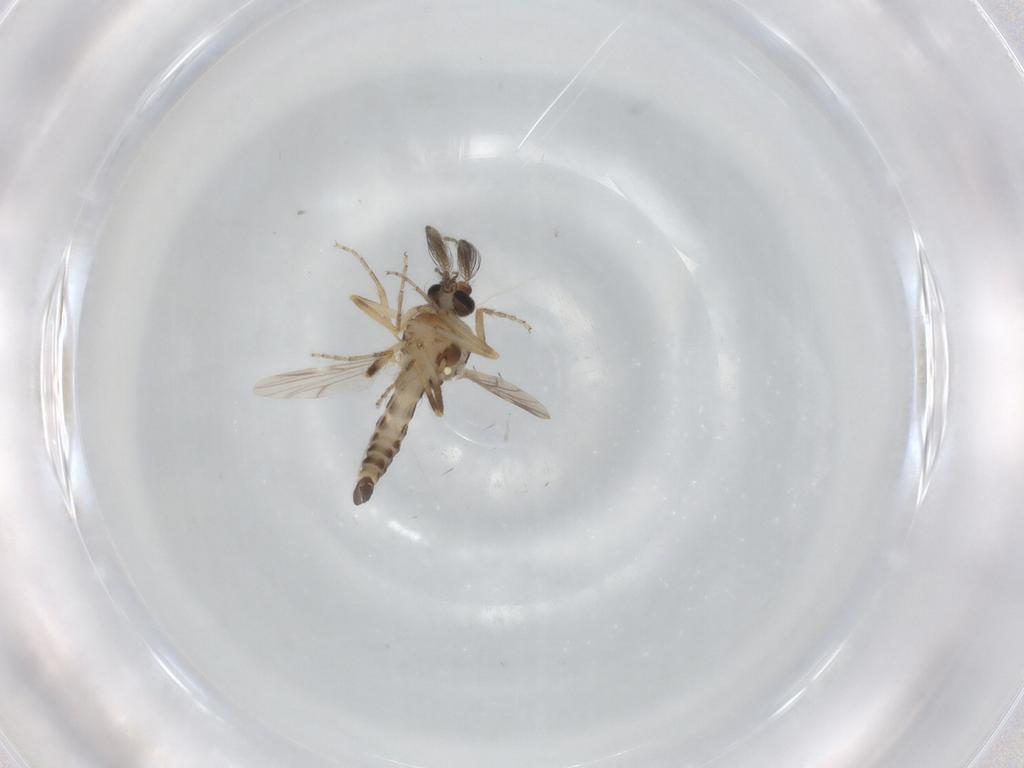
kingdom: Animalia
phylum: Arthropoda
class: Insecta
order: Diptera
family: Ceratopogonidae
